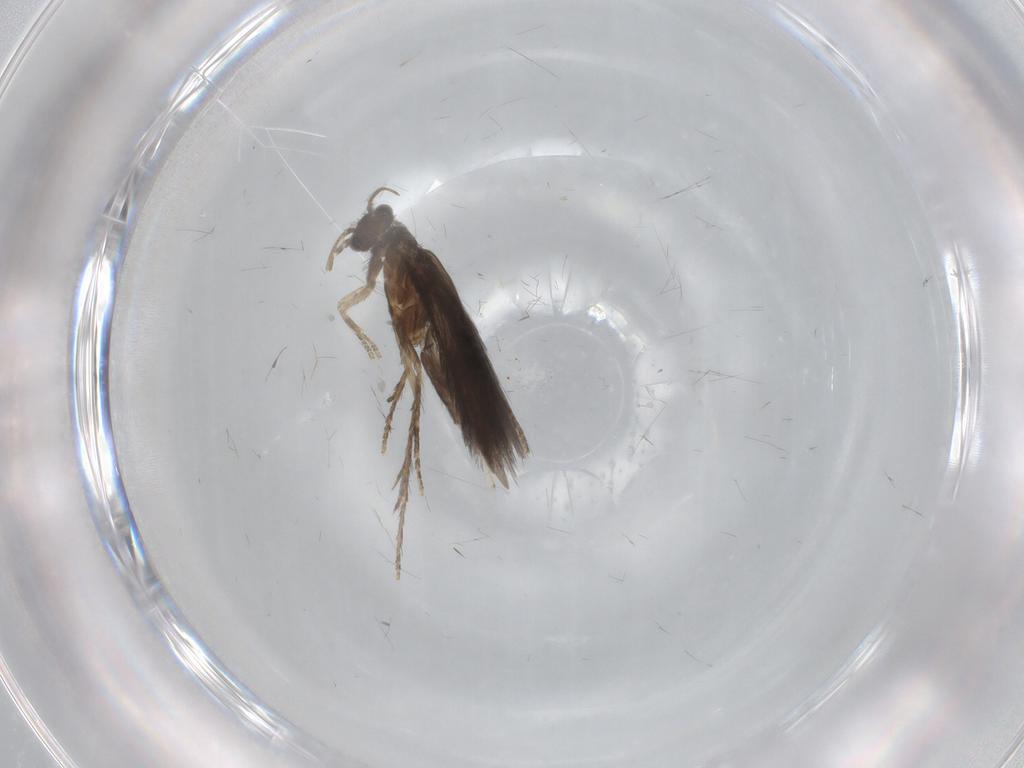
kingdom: Animalia
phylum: Arthropoda
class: Insecta
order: Trichoptera
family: Hydroptilidae
